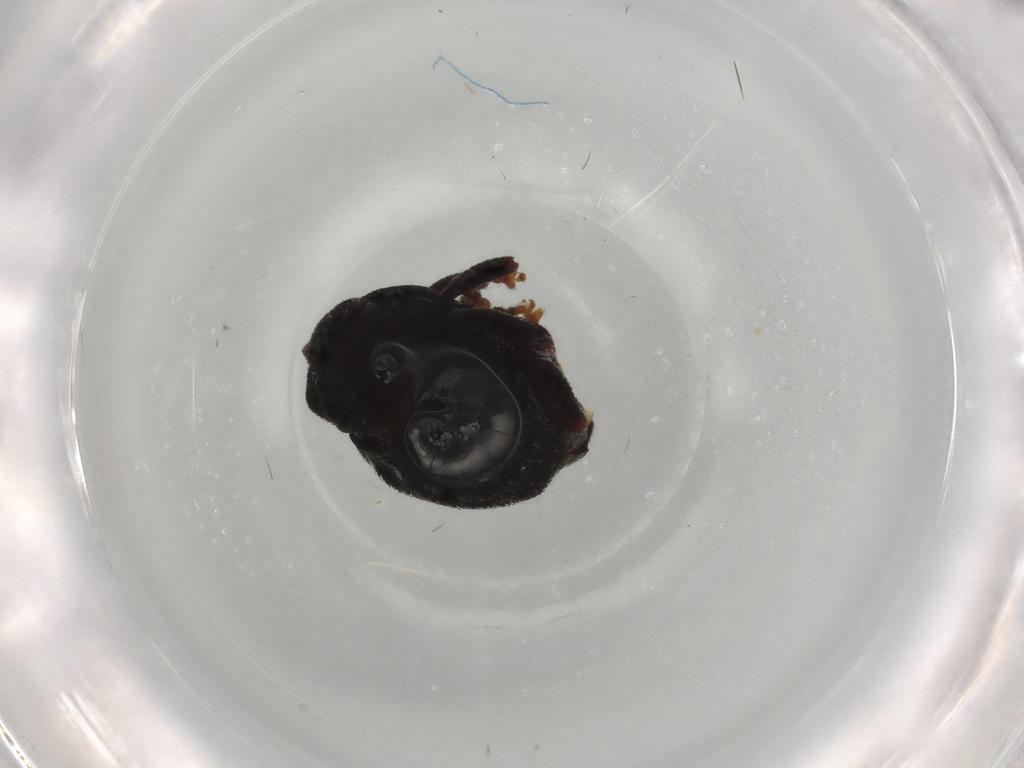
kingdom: Animalia
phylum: Arthropoda
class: Insecta
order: Coleoptera
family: Curculionidae
